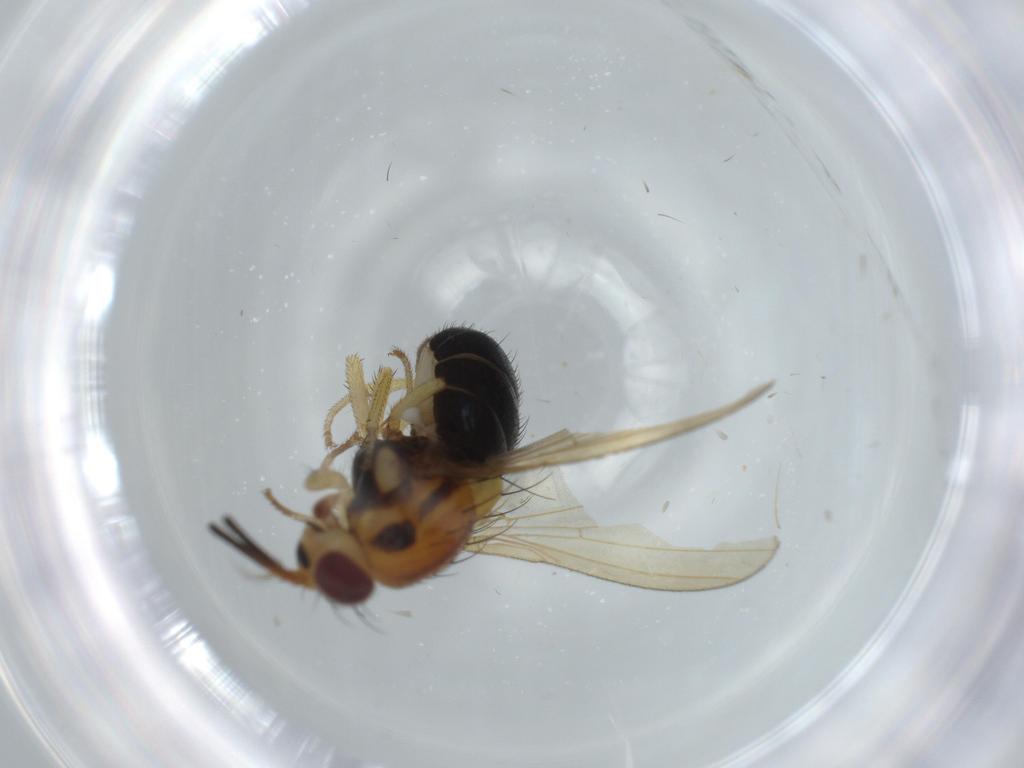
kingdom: Animalia
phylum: Arthropoda
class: Insecta
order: Diptera
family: Lauxaniidae
